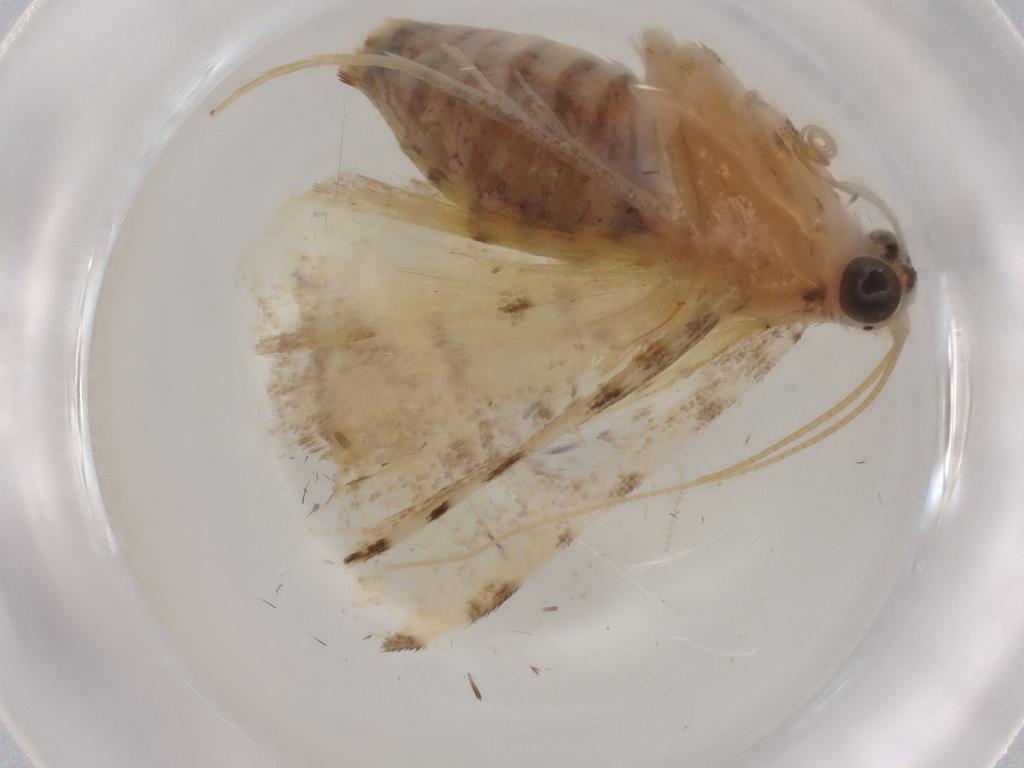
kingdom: Animalia
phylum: Arthropoda
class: Insecta
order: Lepidoptera
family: Crambidae
